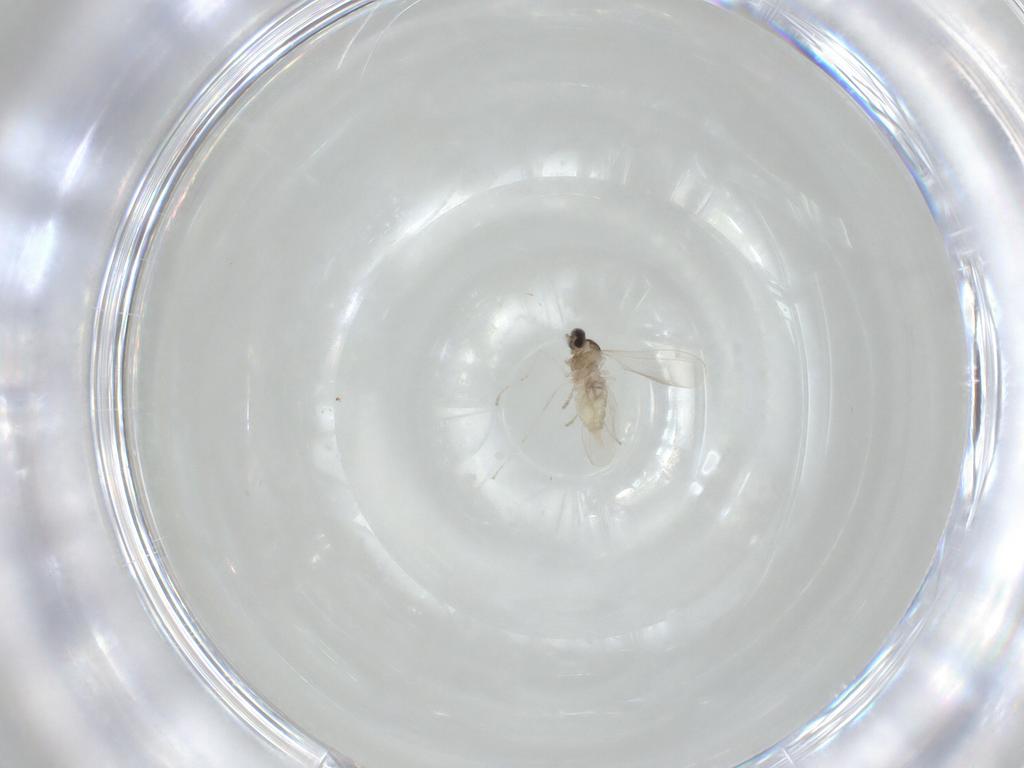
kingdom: Animalia
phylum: Arthropoda
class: Insecta
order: Diptera
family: Cecidomyiidae
